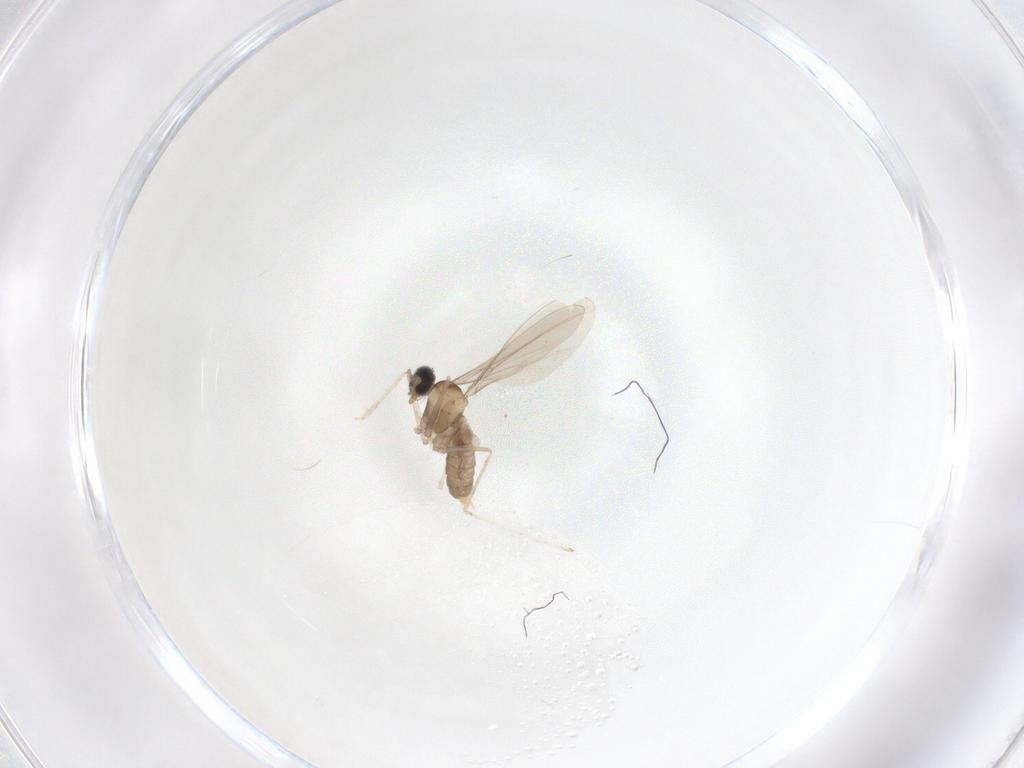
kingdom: Animalia
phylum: Arthropoda
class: Insecta
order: Diptera
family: Cecidomyiidae
